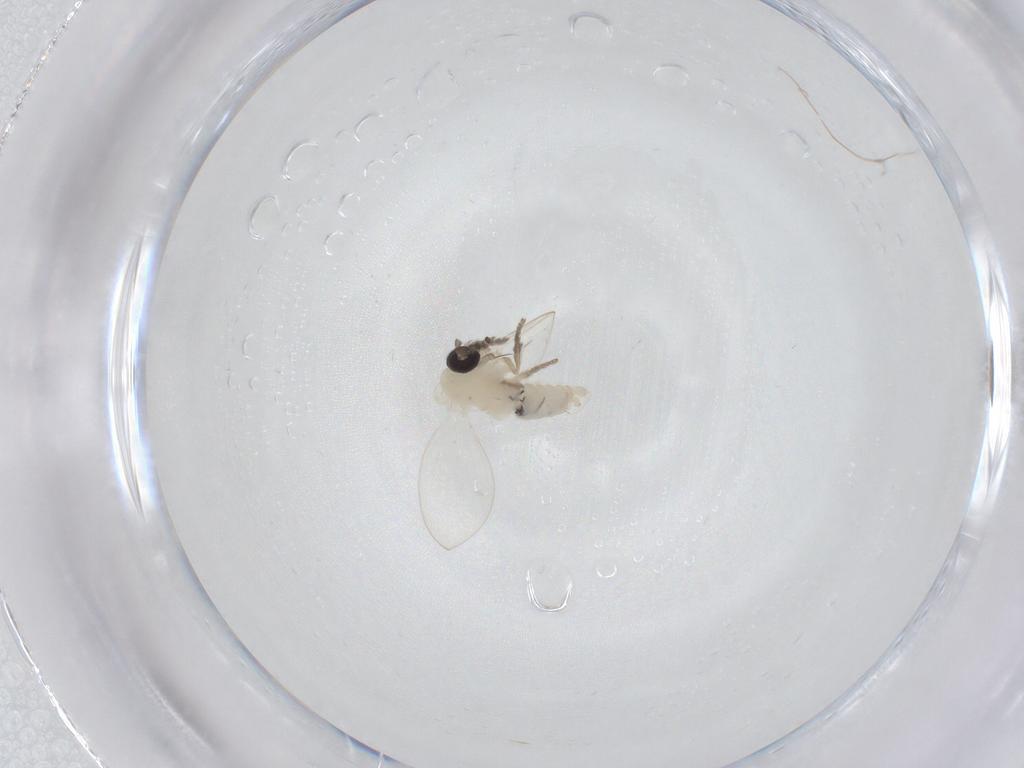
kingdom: Animalia
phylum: Arthropoda
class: Insecta
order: Diptera
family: Psychodidae
